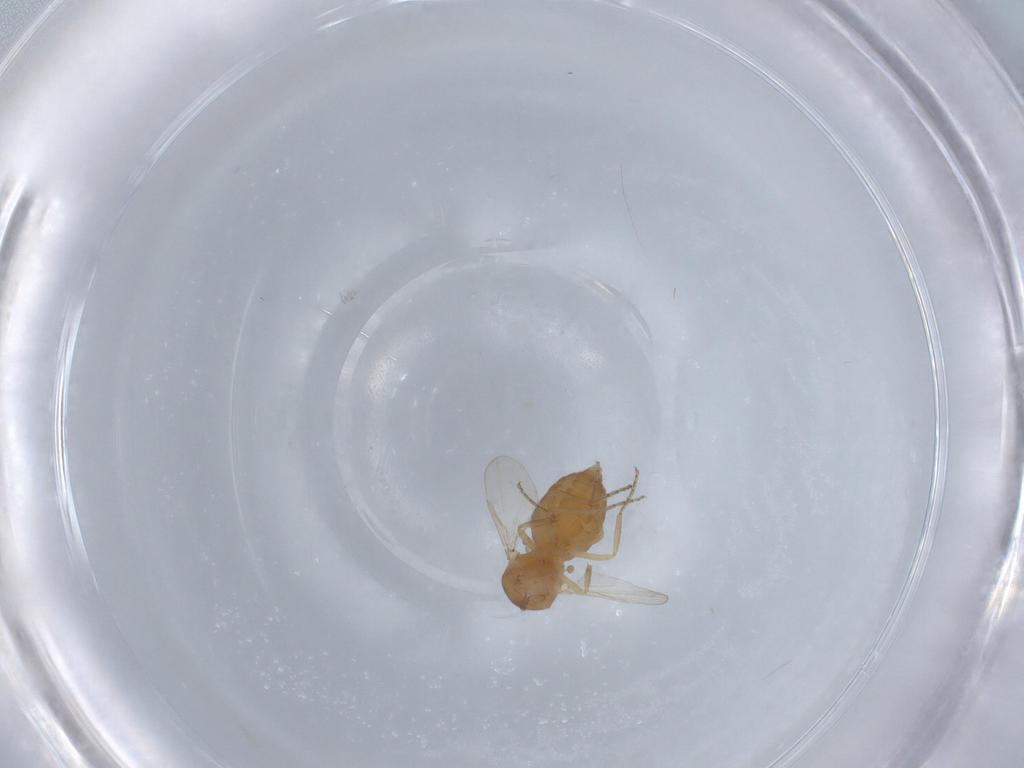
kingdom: Animalia
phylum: Arthropoda
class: Insecta
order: Diptera
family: Ceratopogonidae
